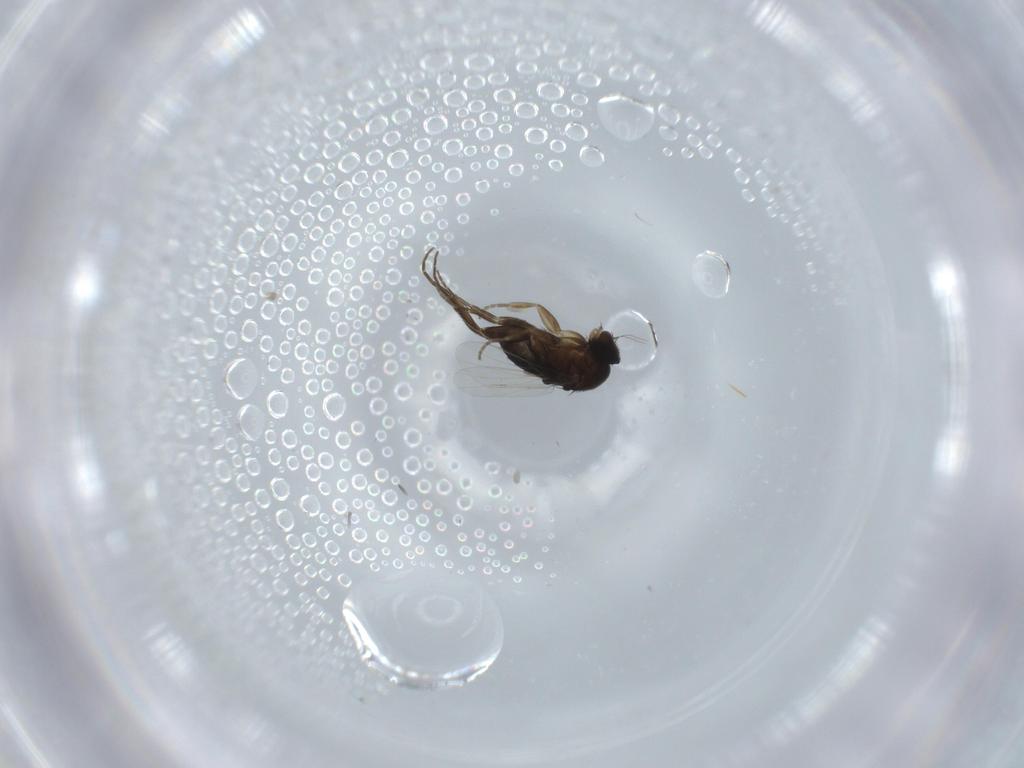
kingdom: Animalia
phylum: Arthropoda
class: Insecta
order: Diptera
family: Phoridae
